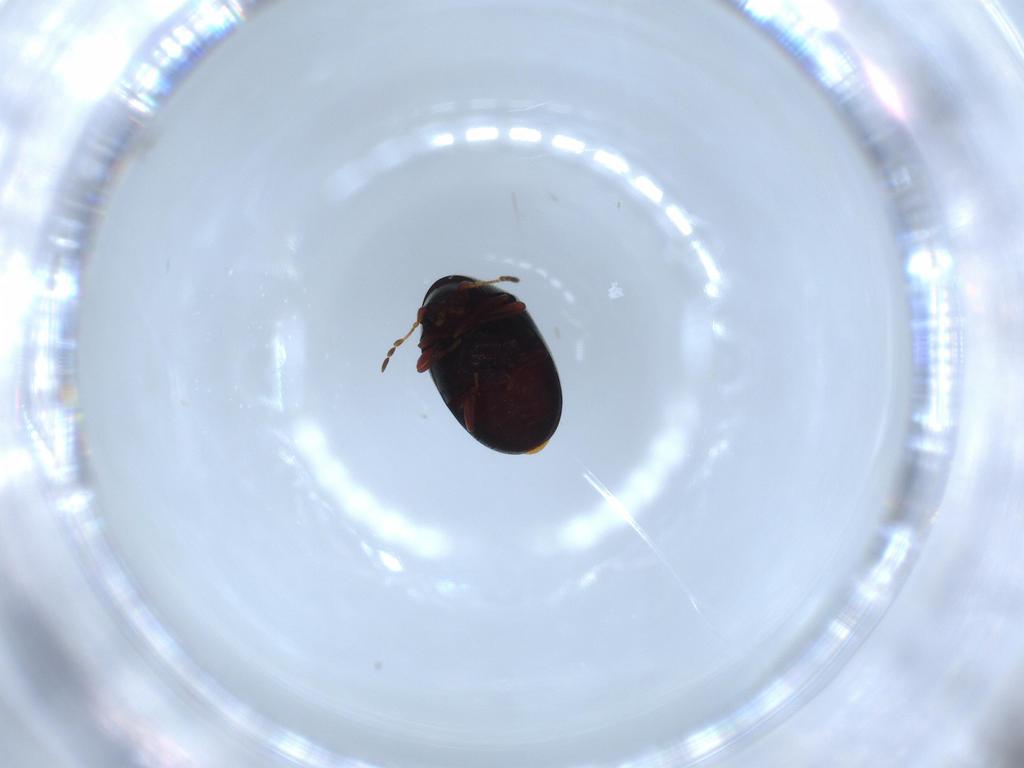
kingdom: Animalia
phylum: Arthropoda
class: Insecta
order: Coleoptera
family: Ptinidae
